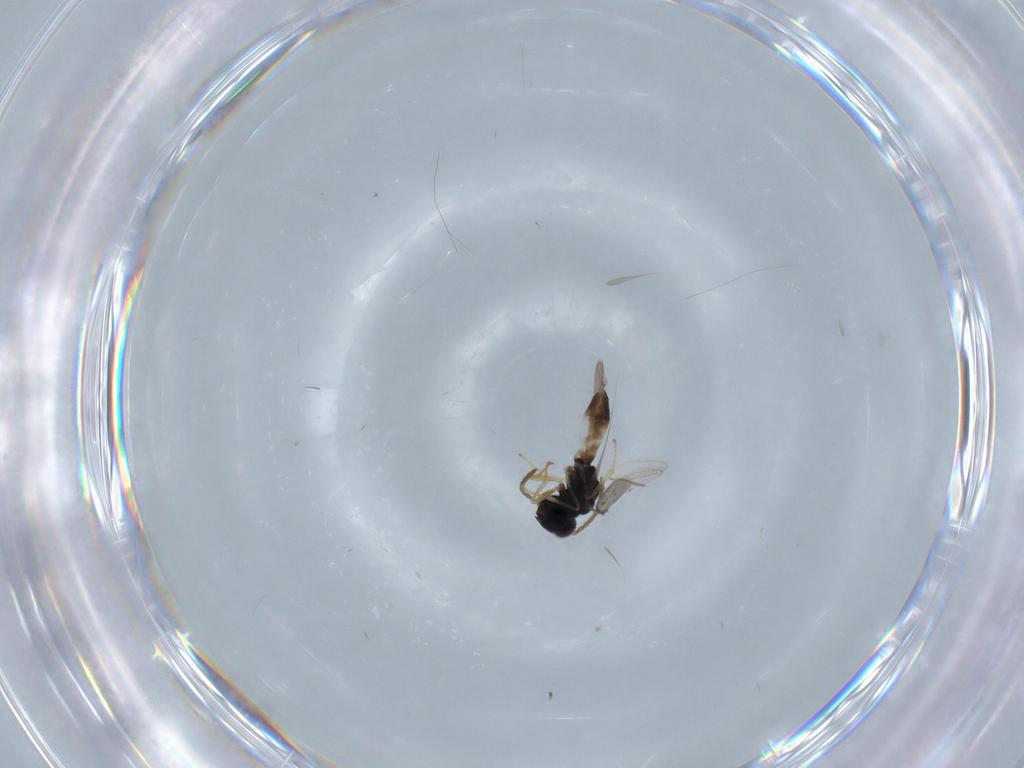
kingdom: Animalia
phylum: Arthropoda
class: Insecta
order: Hymenoptera
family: Pteromalidae
